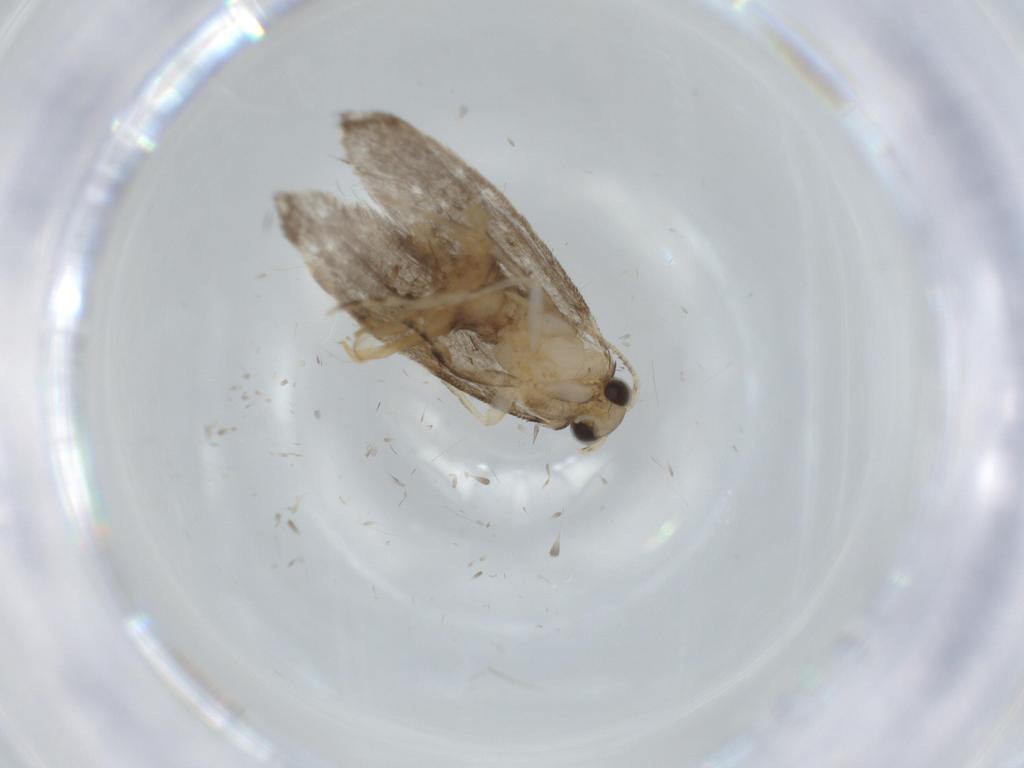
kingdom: Animalia
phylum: Arthropoda
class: Insecta
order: Lepidoptera
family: Tineidae
